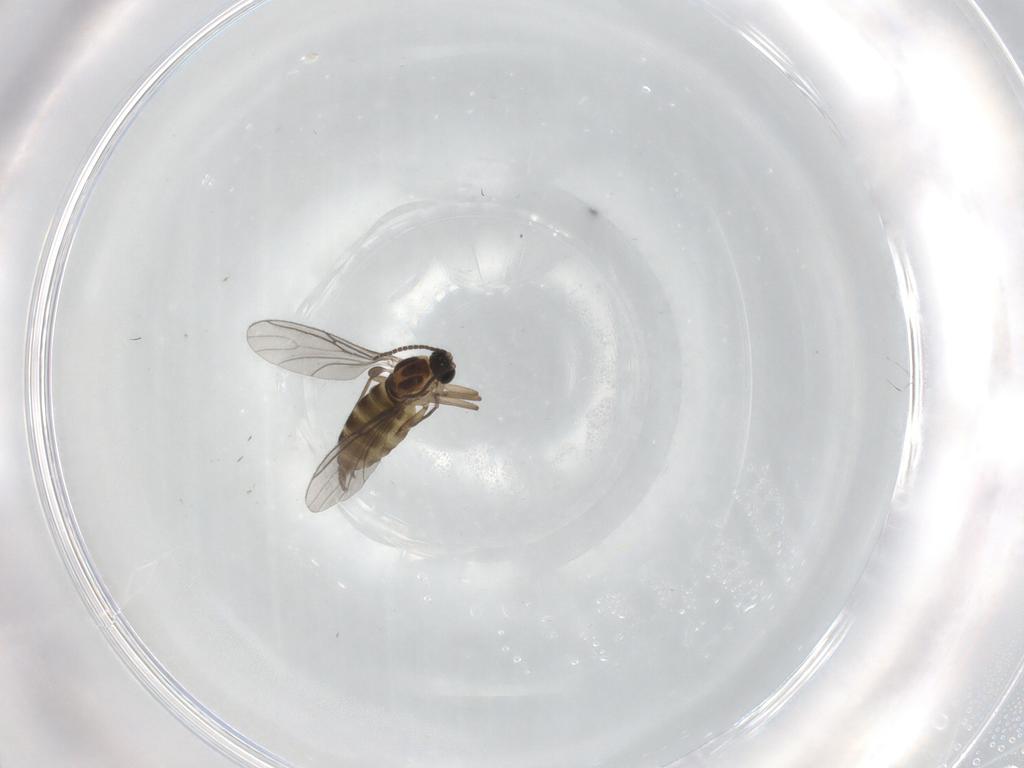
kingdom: Animalia
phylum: Arthropoda
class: Insecta
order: Diptera
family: Sciaridae
